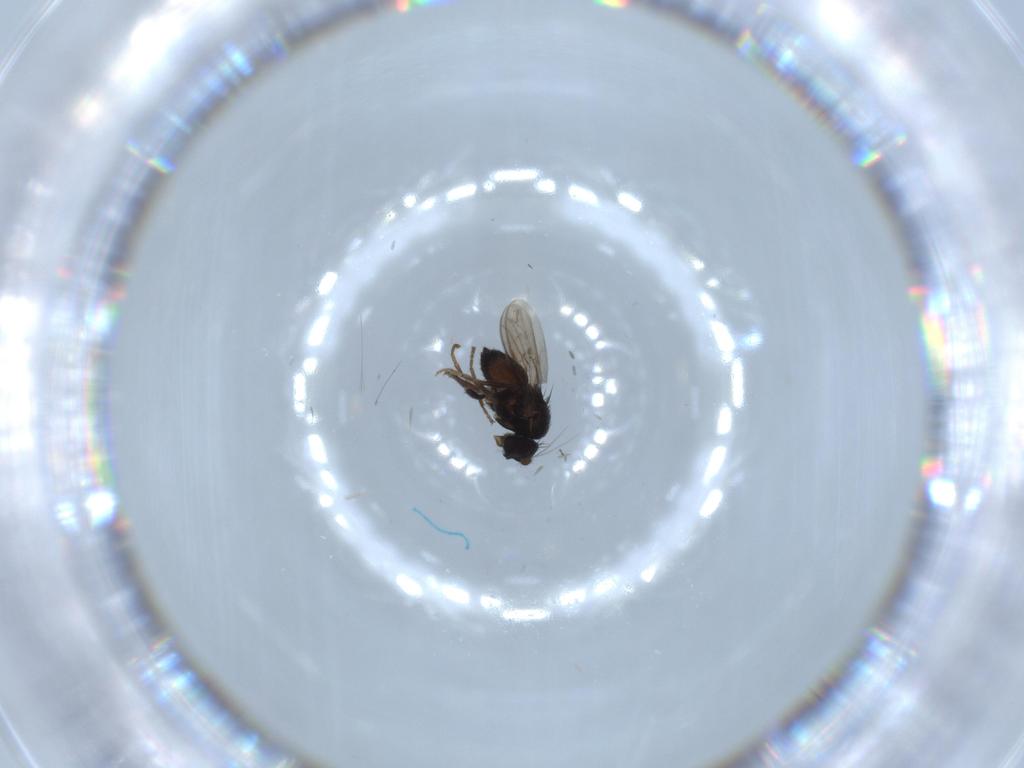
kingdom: Animalia
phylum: Arthropoda
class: Insecta
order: Diptera
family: Sphaeroceridae
